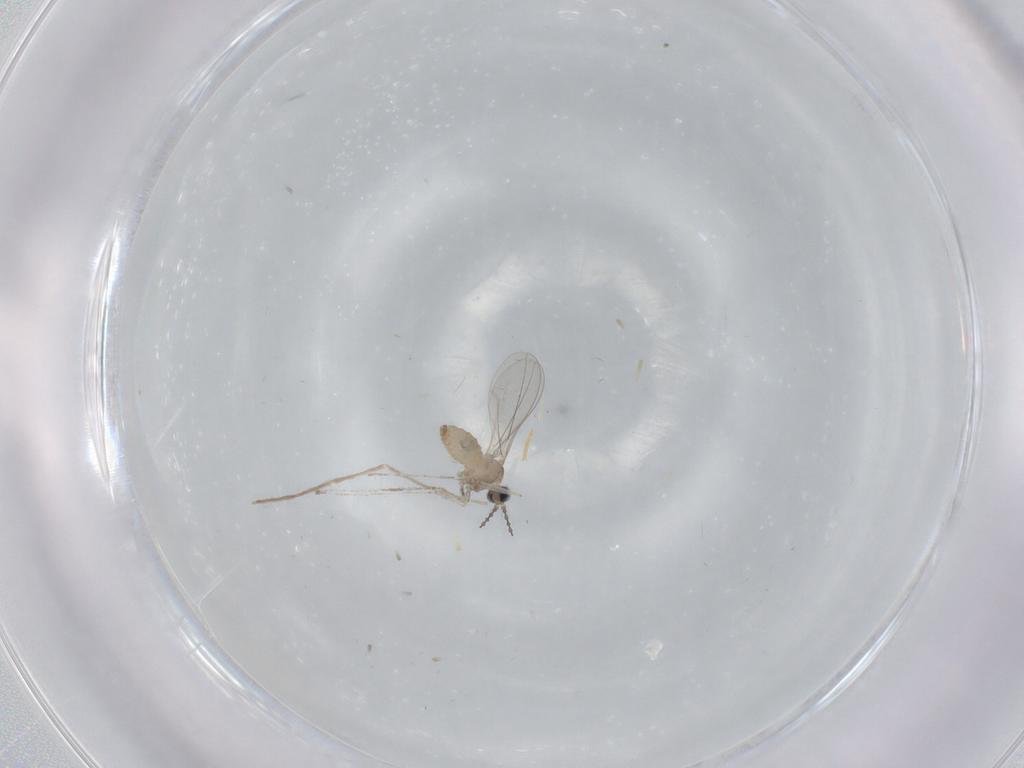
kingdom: Animalia
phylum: Arthropoda
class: Insecta
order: Diptera
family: Cecidomyiidae
